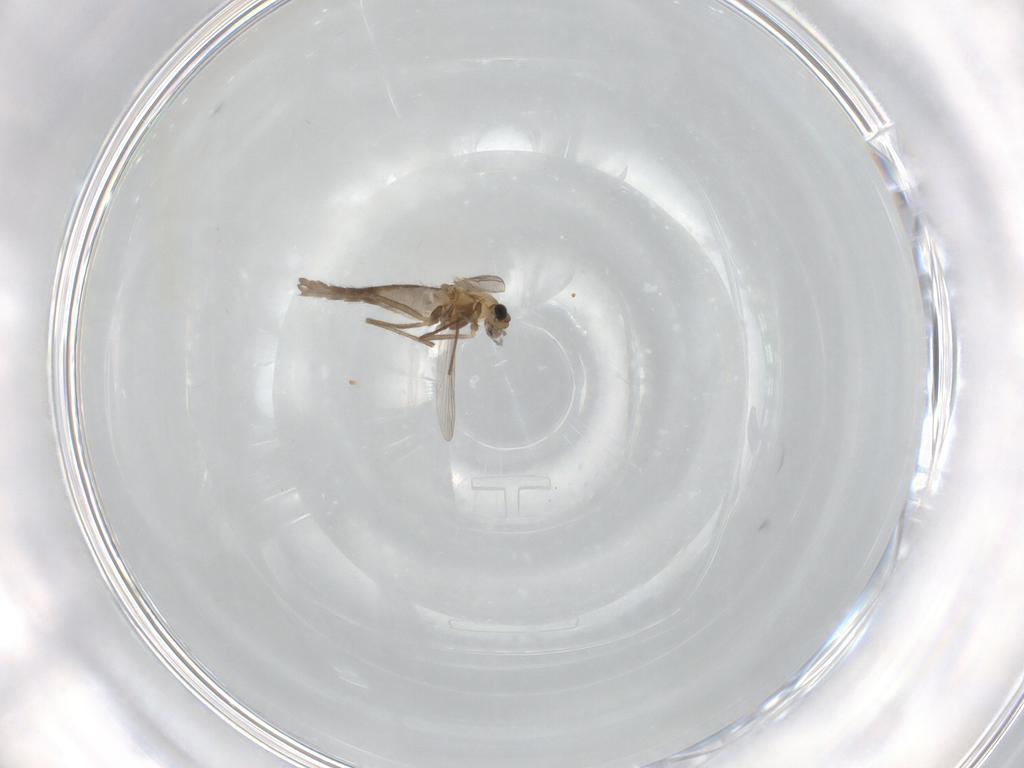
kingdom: Animalia
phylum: Arthropoda
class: Insecta
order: Diptera
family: Chironomidae
